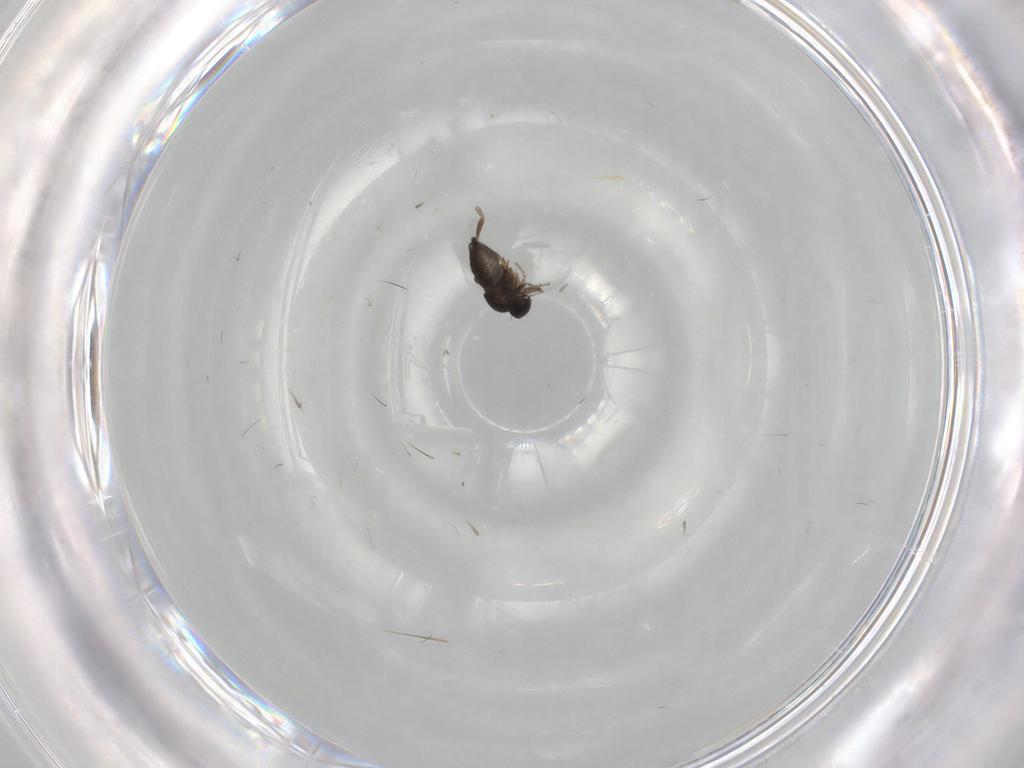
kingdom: Animalia
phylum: Arthropoda
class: Insecta
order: Diptera
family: Phoridae
